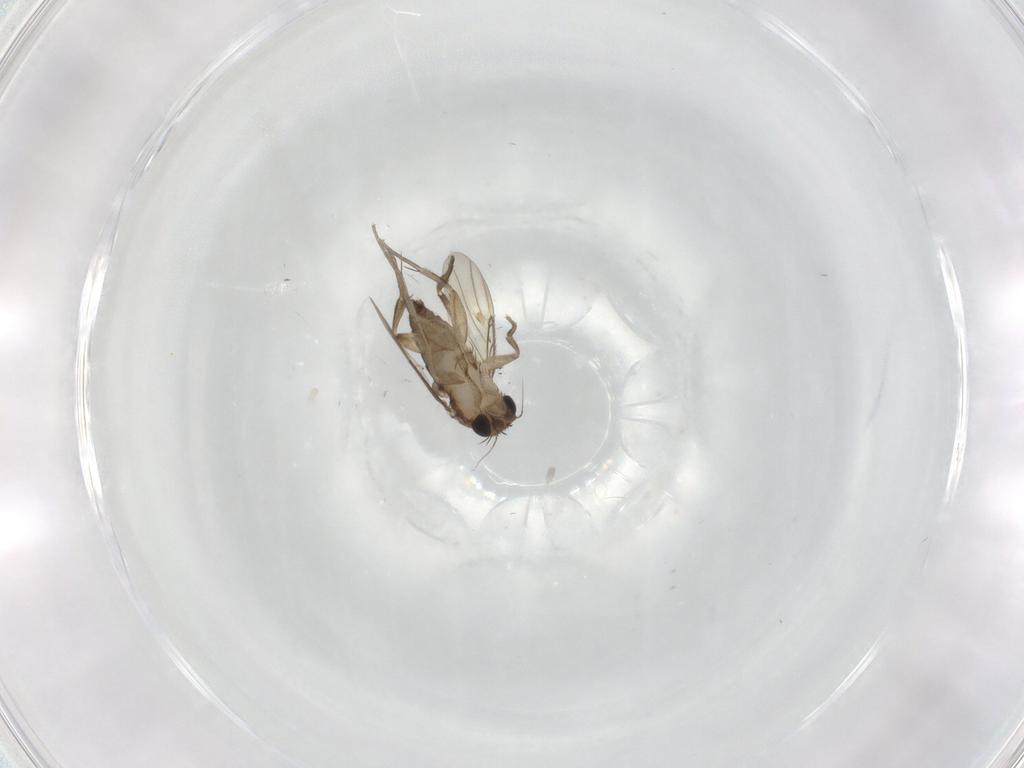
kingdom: Animalia
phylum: Arthropoda
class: Insecta
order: Diptera
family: Phoridae
